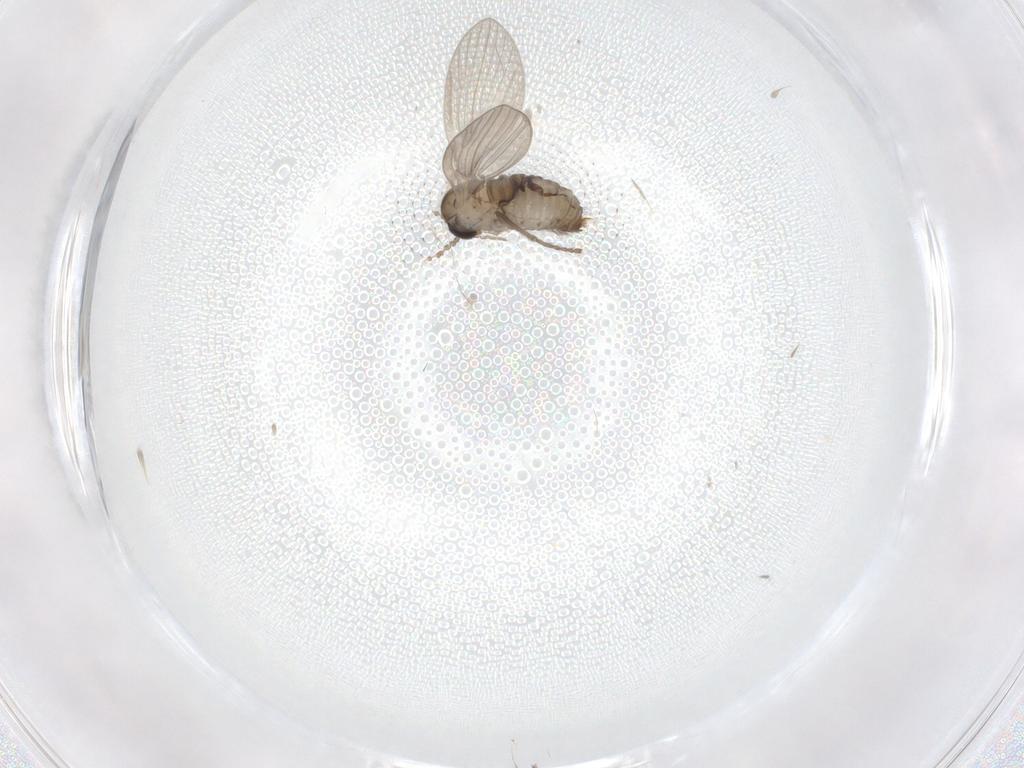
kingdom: Animalia
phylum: Arthropoda
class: Insecta
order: Diptera
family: Psychodidae
